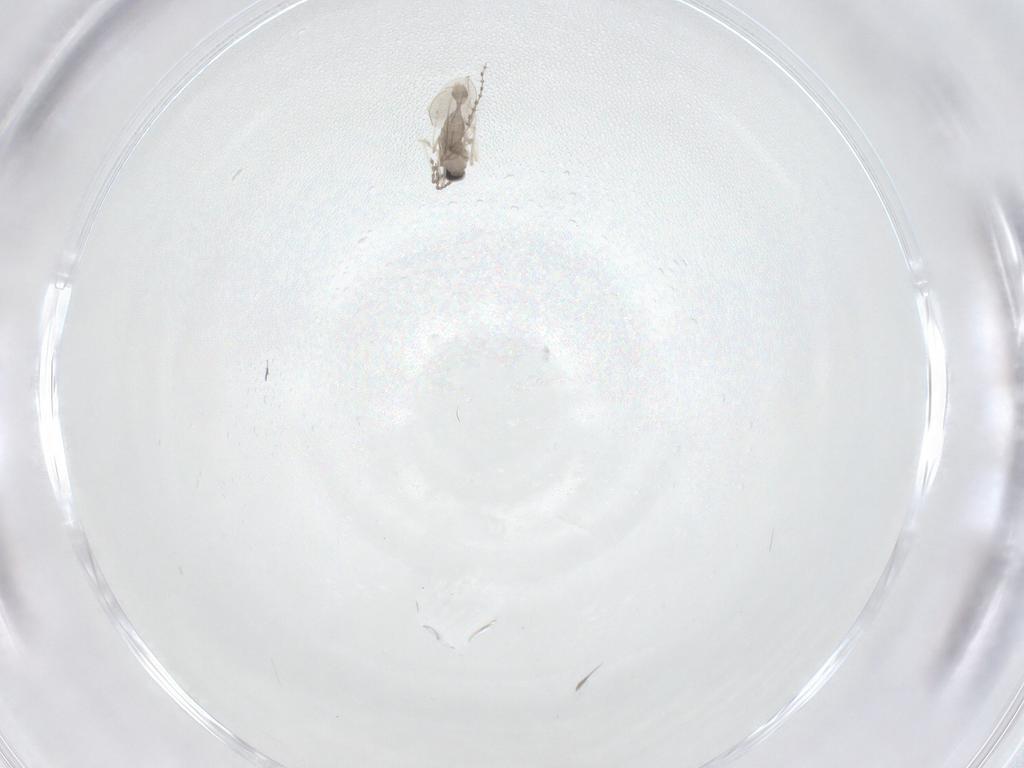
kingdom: Animalia
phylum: Arthropoda
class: Insecta
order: Diptera
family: Cecidomyiidae
